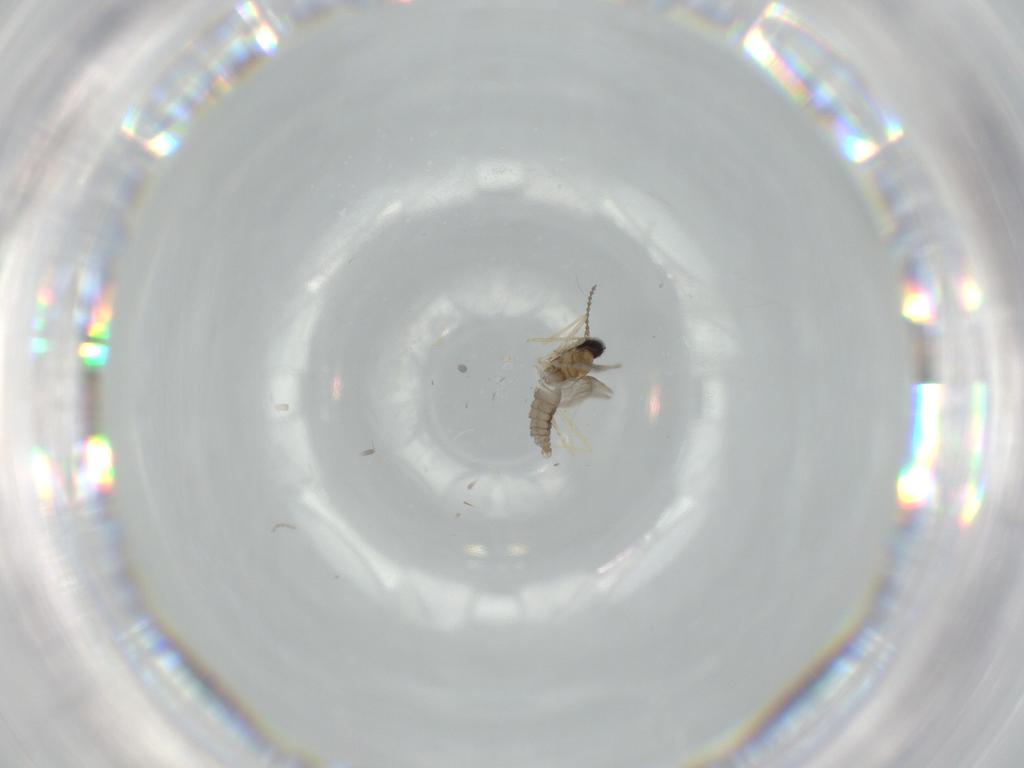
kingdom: Animalia
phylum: Arthropoda
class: Insecta
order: Diptera
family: Cecidomyiidae
